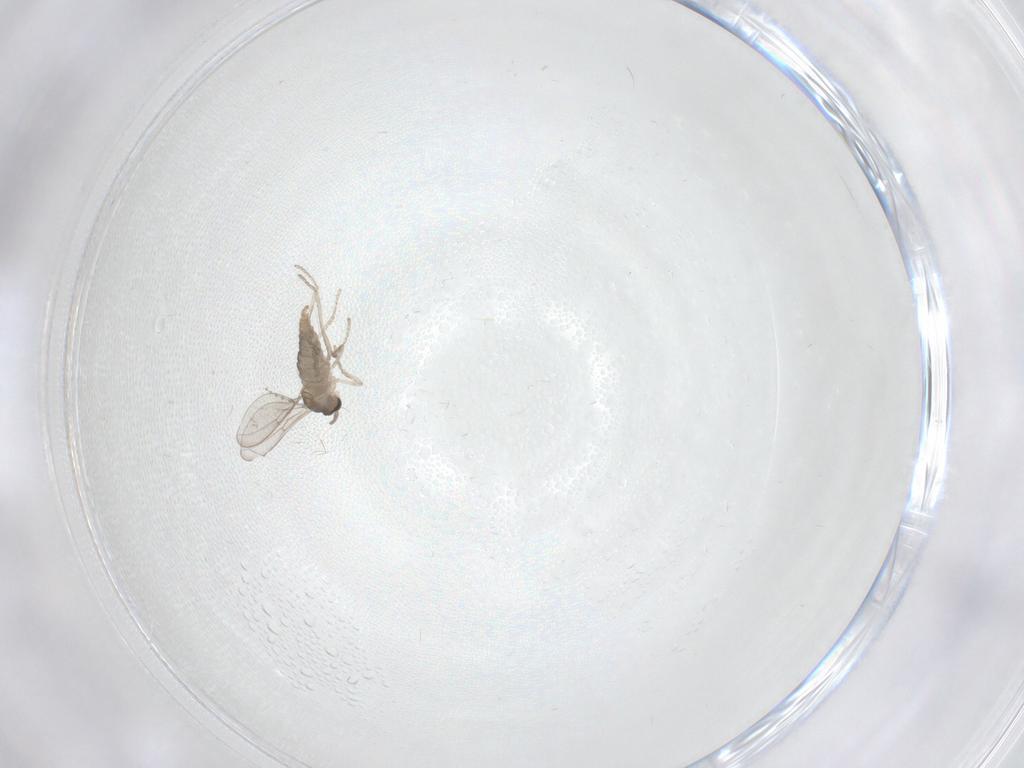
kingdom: Animalia
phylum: Arthropoda
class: Insecta
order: Diptera
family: Cecidomyiidae
